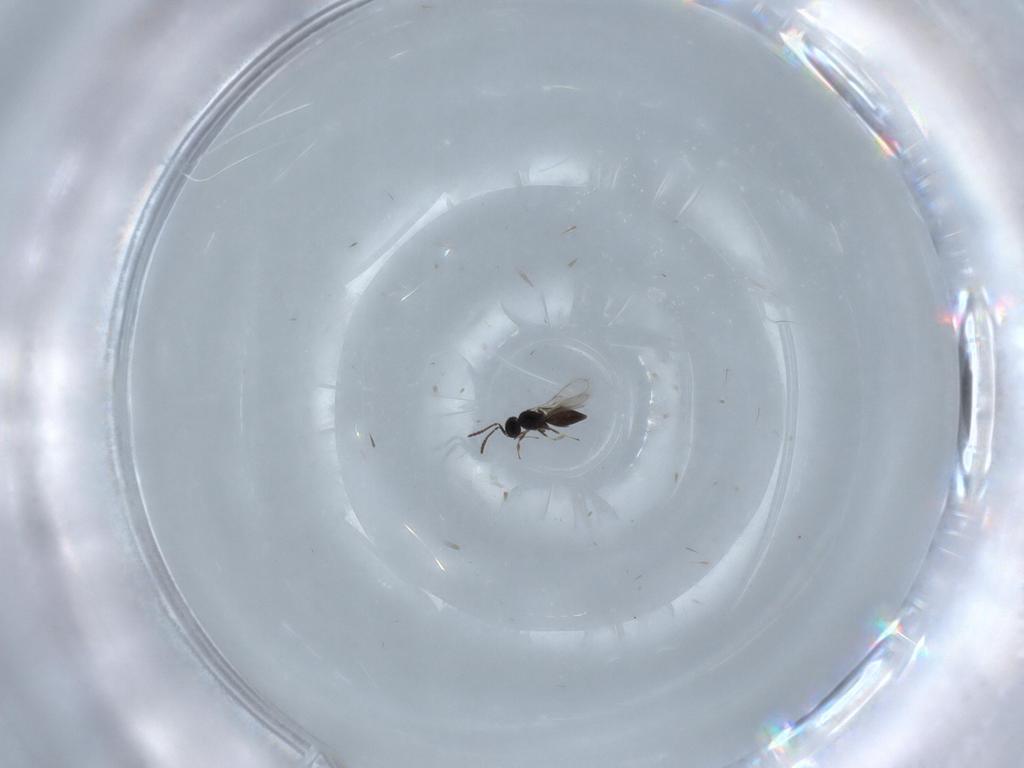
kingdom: Animalia
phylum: Arthropoda
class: Insecta
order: Hymenoptera
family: Scelionidae
